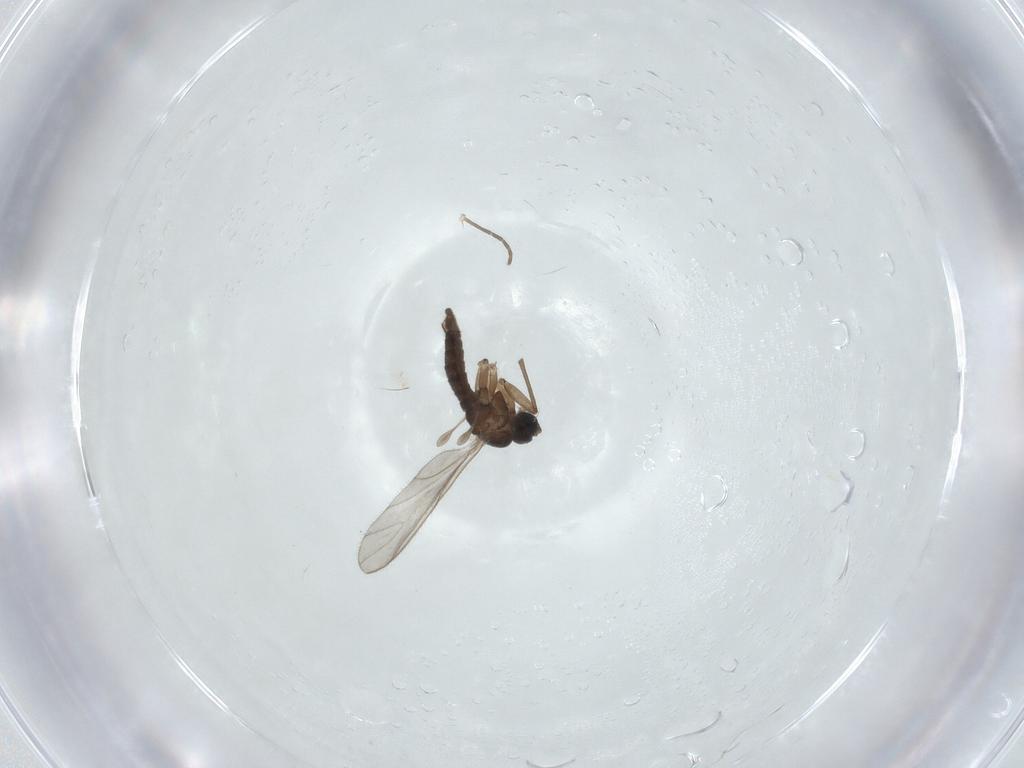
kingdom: Animalia
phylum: Arthropoda
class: Insecta
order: Diptera
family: Sciaridae
